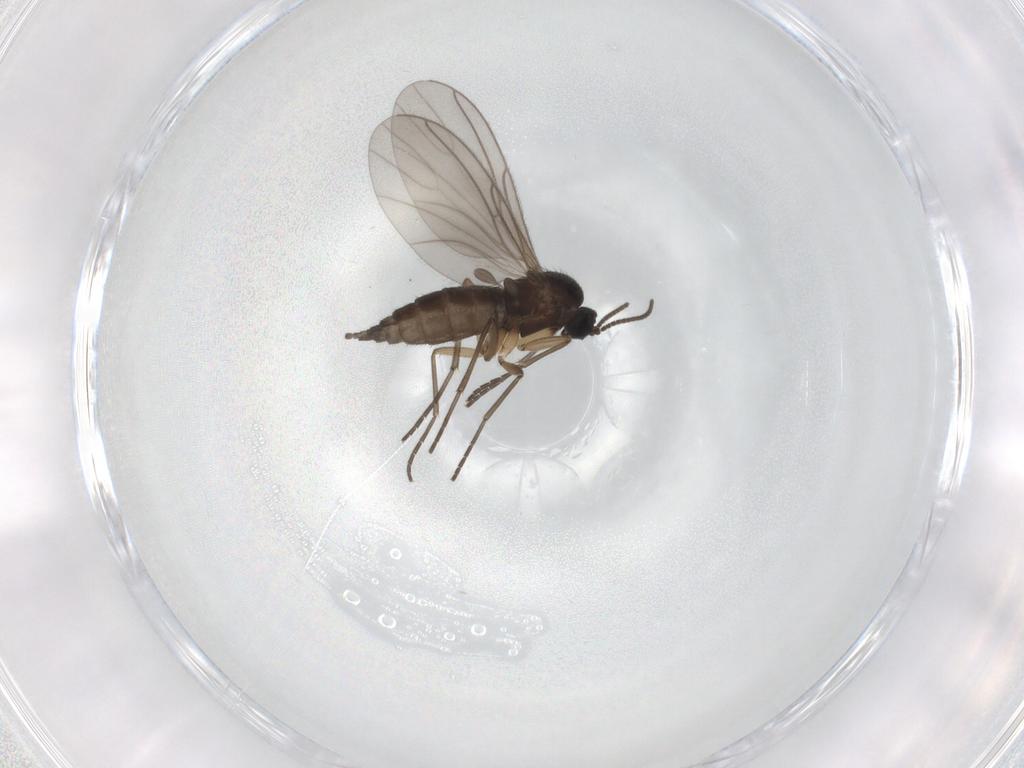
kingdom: Animalia
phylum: Arthropoda
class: Insecta
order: Diptera
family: Sciaridae
